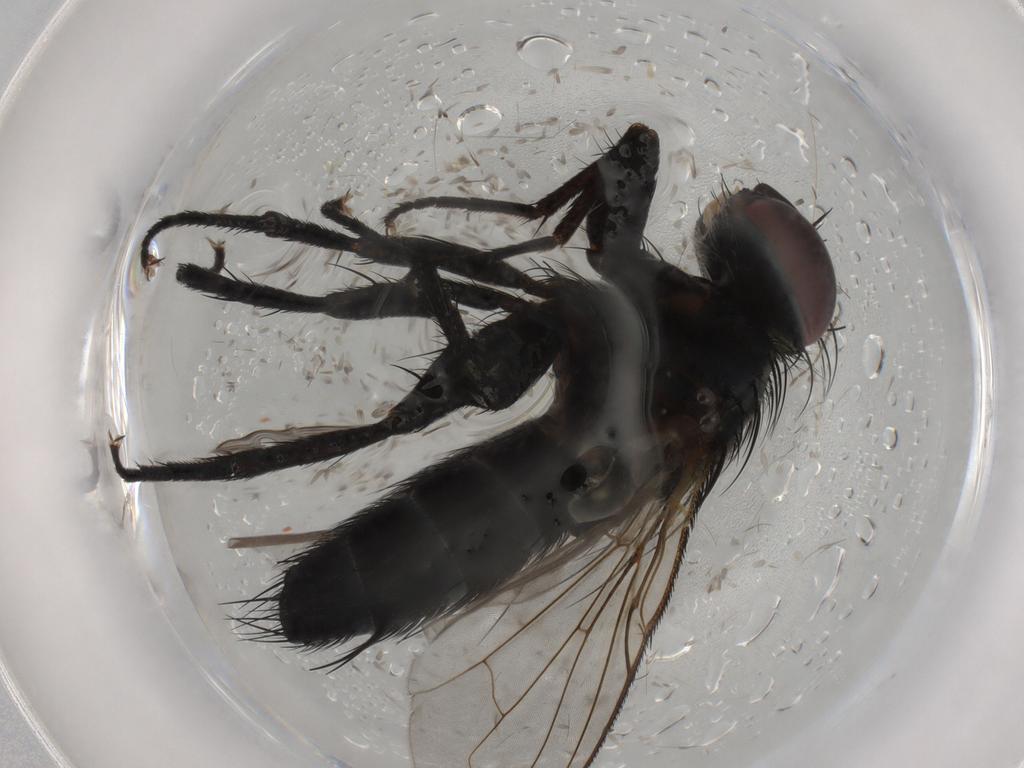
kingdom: Animalia
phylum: Arthropoda
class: Insecta
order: Diptera
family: Tachinidae
